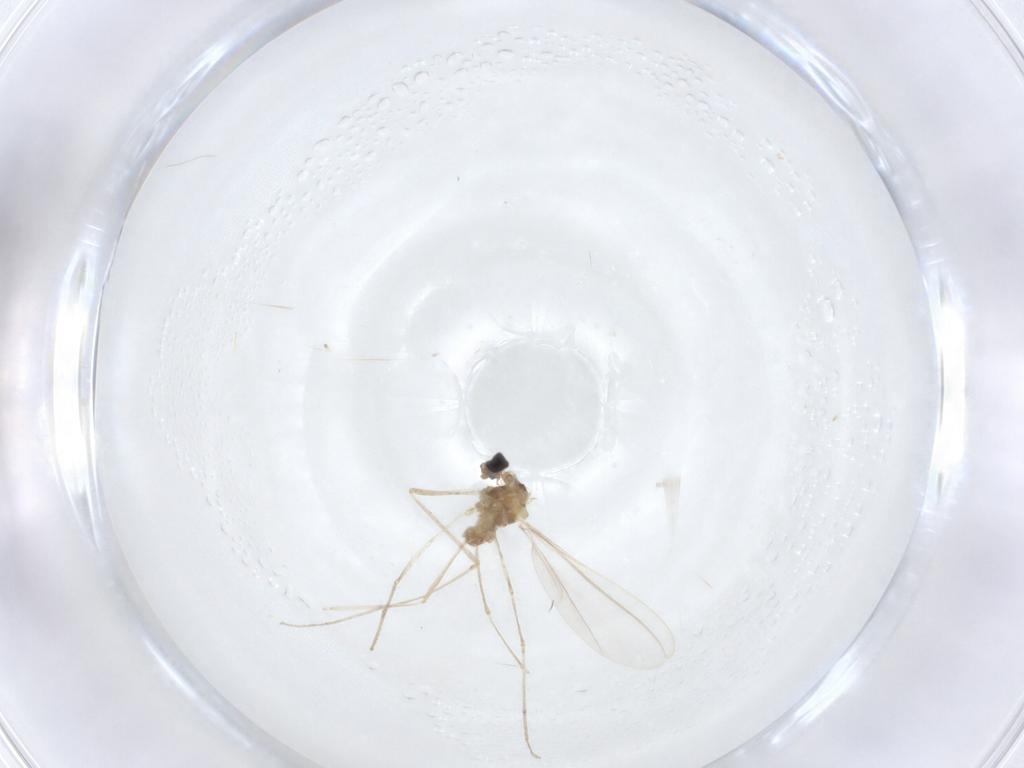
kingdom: Animalia
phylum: Arthropoda
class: Insecta
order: Diptera
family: Cecidomyiidae
